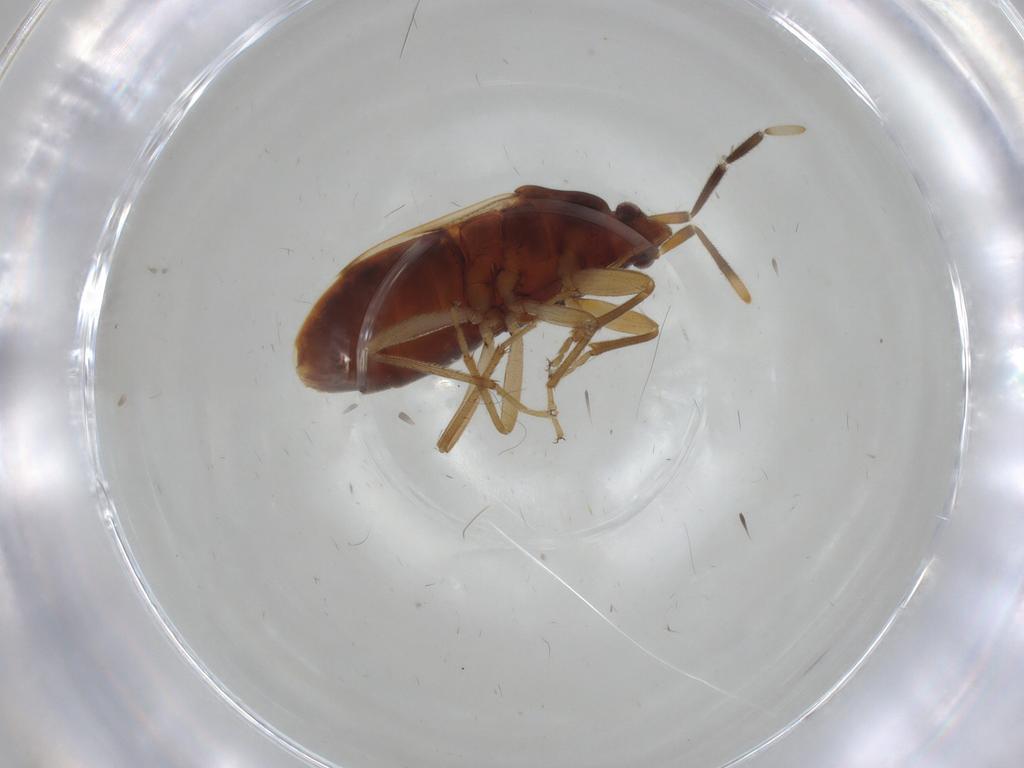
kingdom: Animalia
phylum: Arthropoda
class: Insecta
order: Hemiptera
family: Rhyparochromidae
